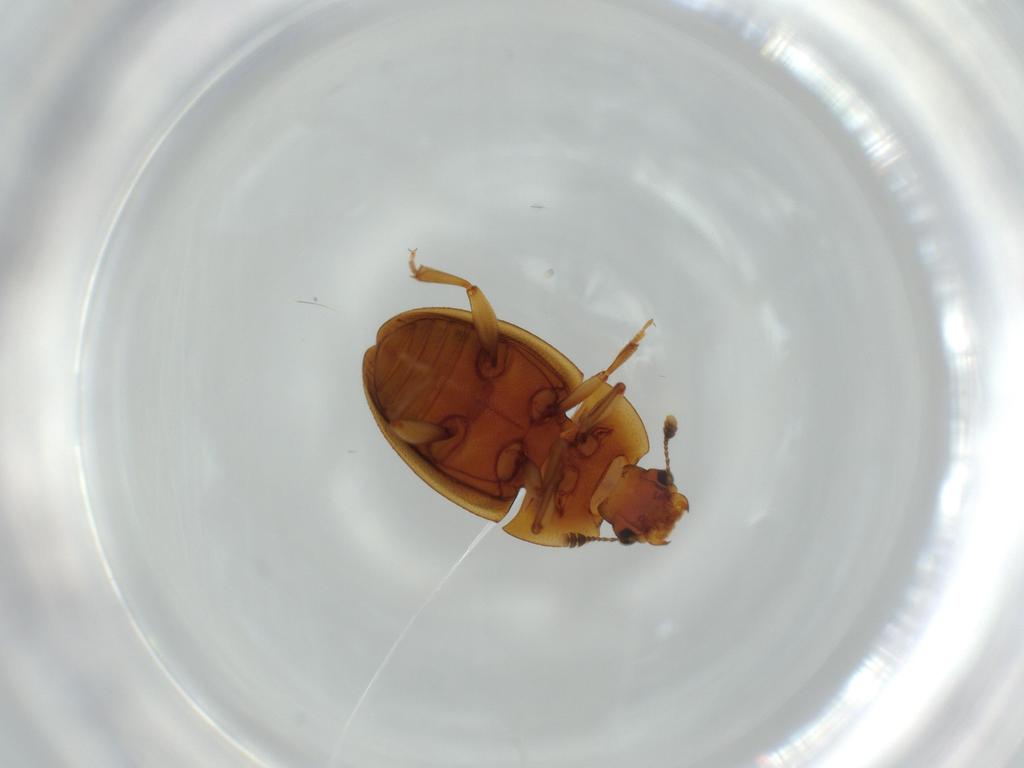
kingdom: Animalia
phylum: Arthropoda
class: Insecta
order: Coleoptera
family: Nitidulidae
